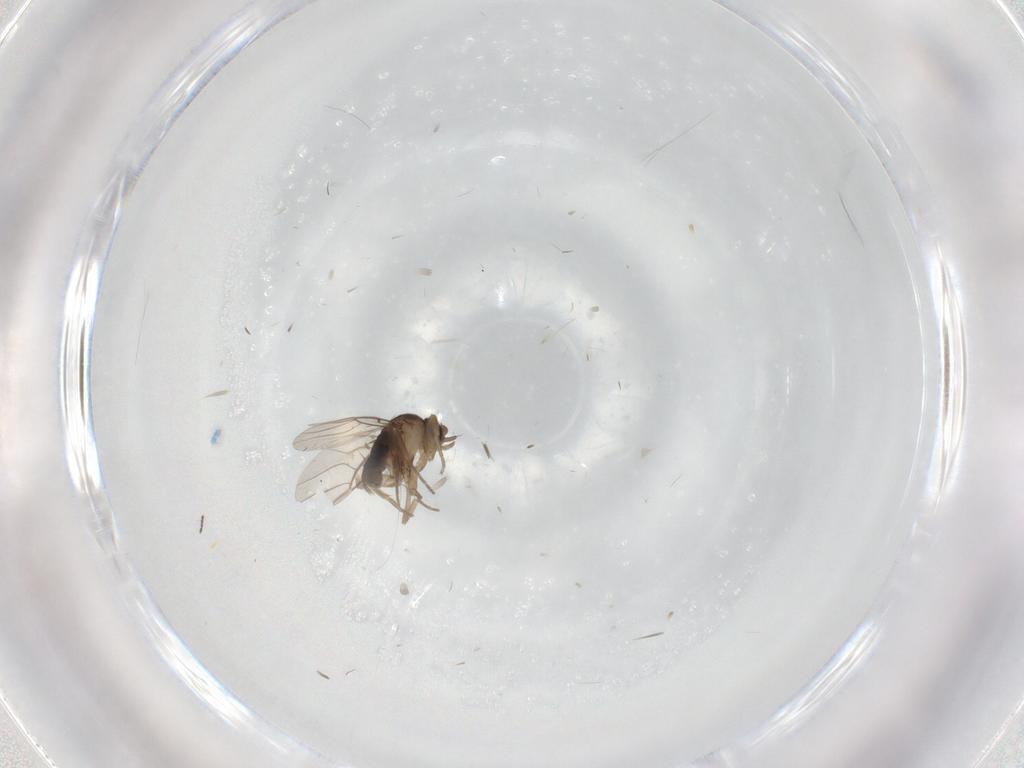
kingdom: Animalia
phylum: Arthropoda
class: Insecta
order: Diptera
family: Phoridae
